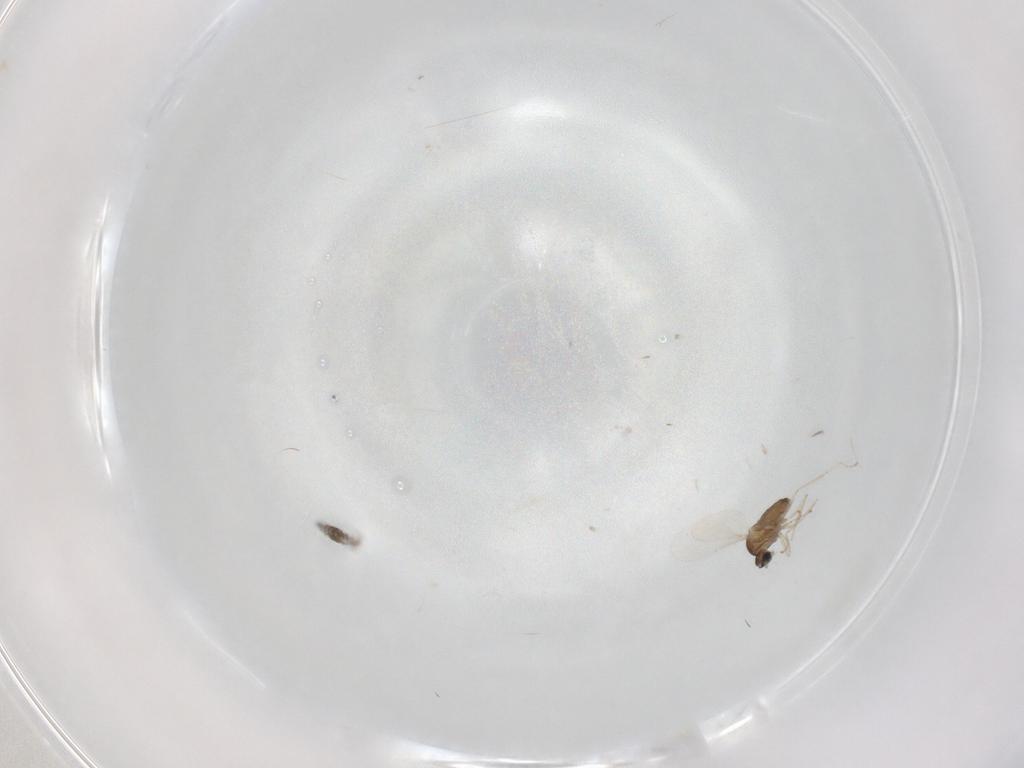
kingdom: Animalia
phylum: Arthropoda
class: Insecta
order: Diptera
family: Cecidomyiidae
